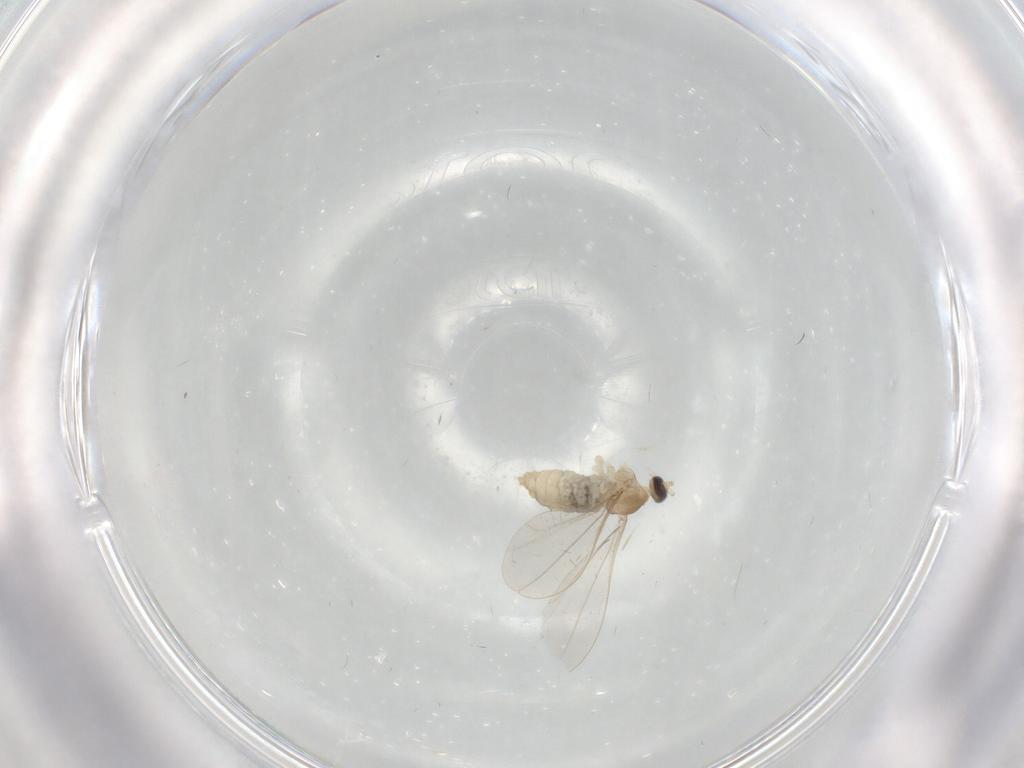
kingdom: Animalia
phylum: Arthropoda
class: Insecta
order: Diptera
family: Cecidomyiidae
